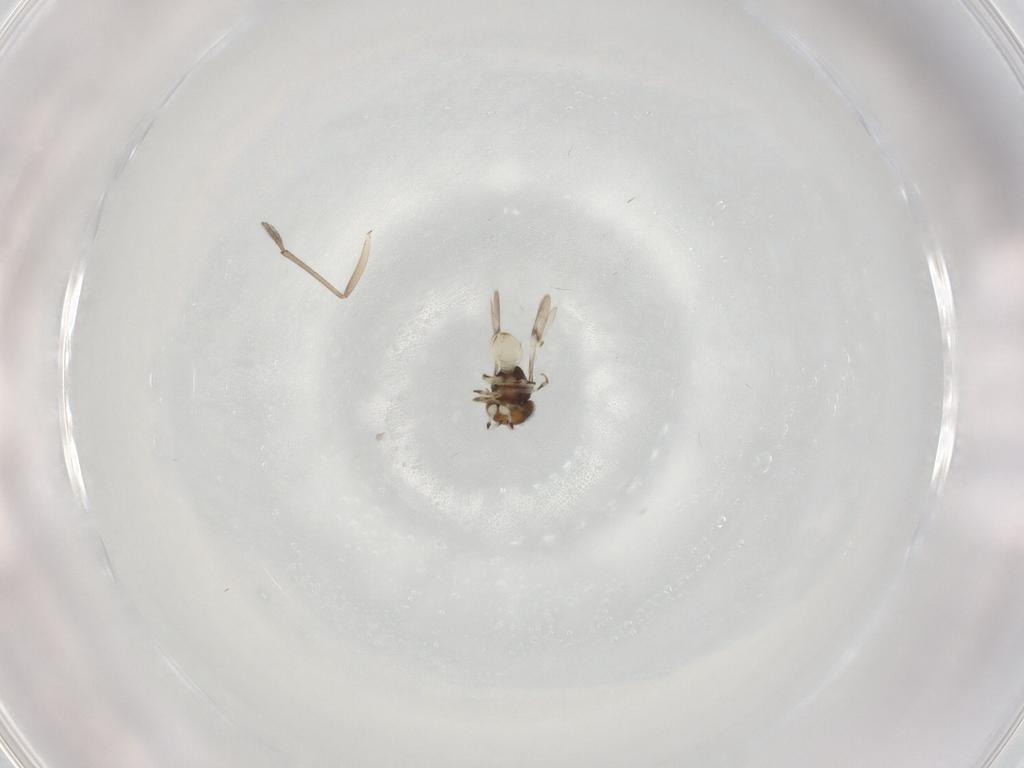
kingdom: Animalia
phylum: Arthropoda
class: Insecta
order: Hymenoptera
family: Scelionidae
